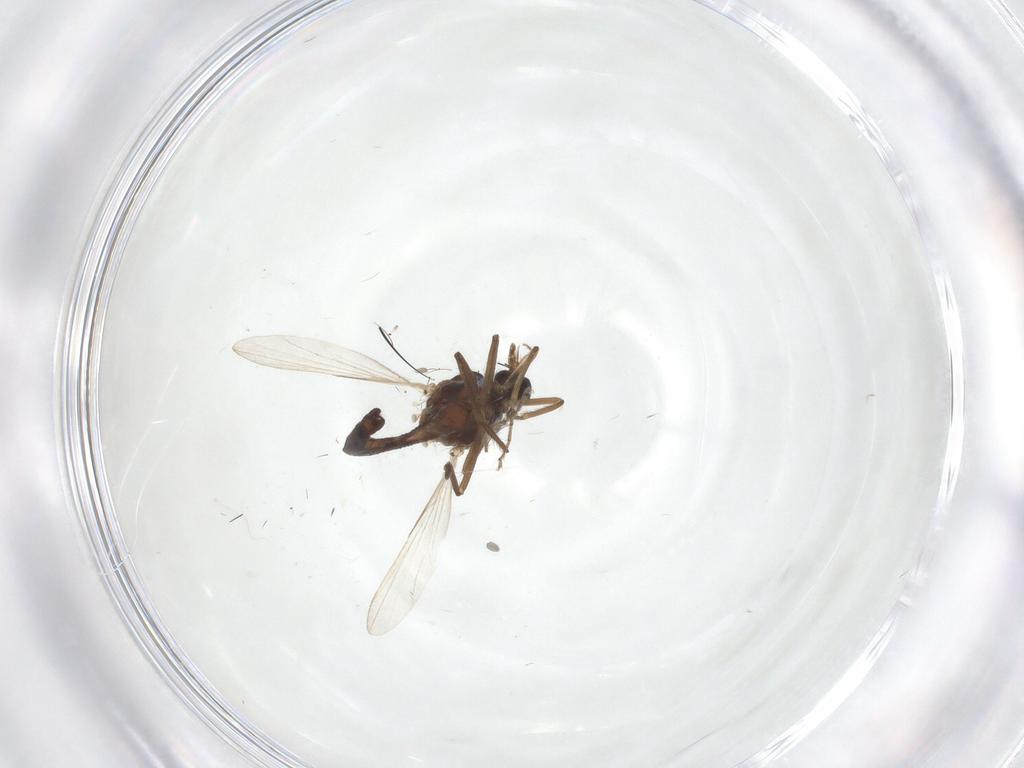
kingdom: Animalia
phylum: Arthropoda
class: Insecta
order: Diptera
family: Ceratopogonidae
